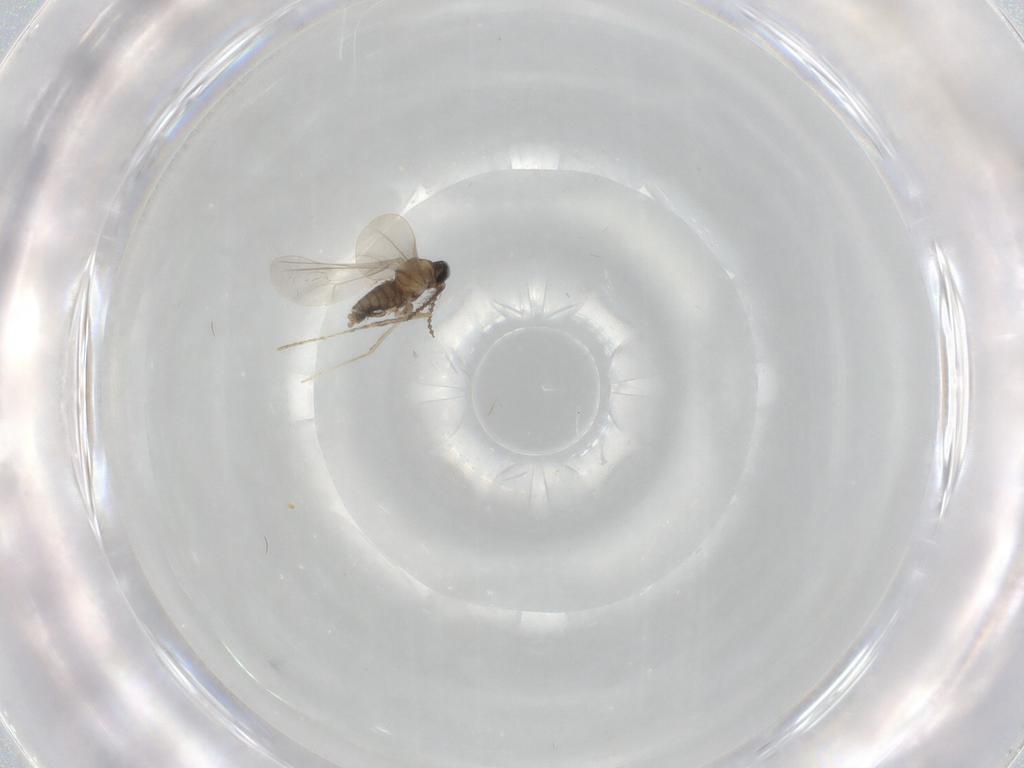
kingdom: Animalia
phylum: Arthropoda
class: Insecta
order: Diptera
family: Cecidomyiidae
